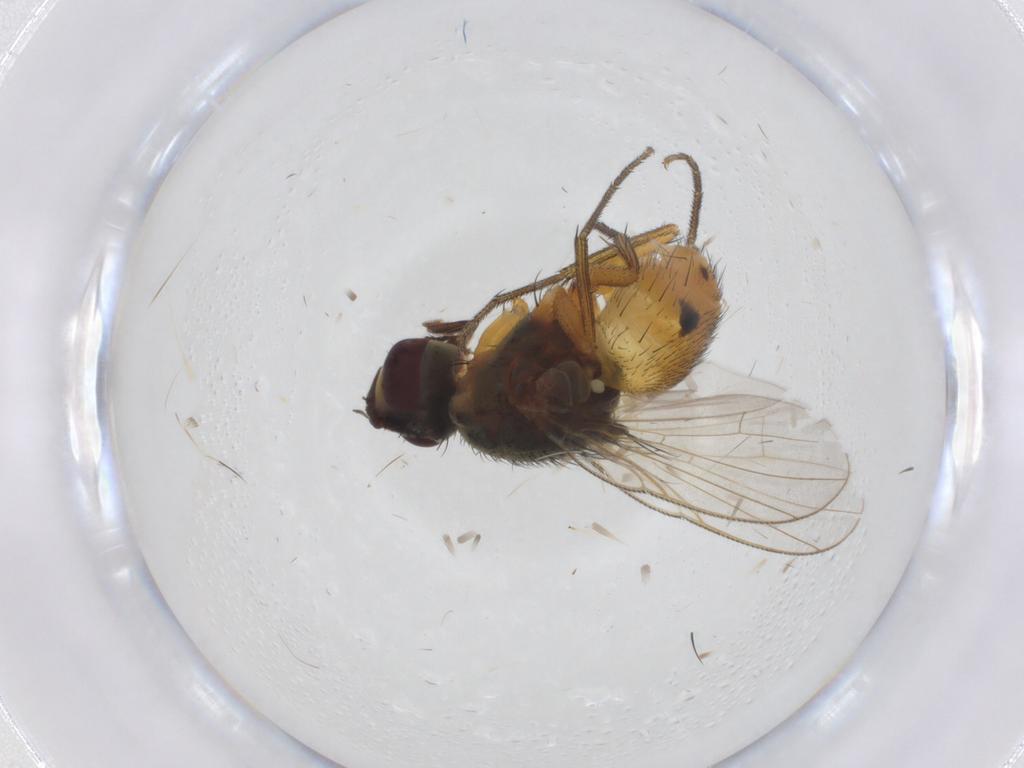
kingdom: Animalia
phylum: Arthropoda
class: Insecta
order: Diptera
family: Muscidae
